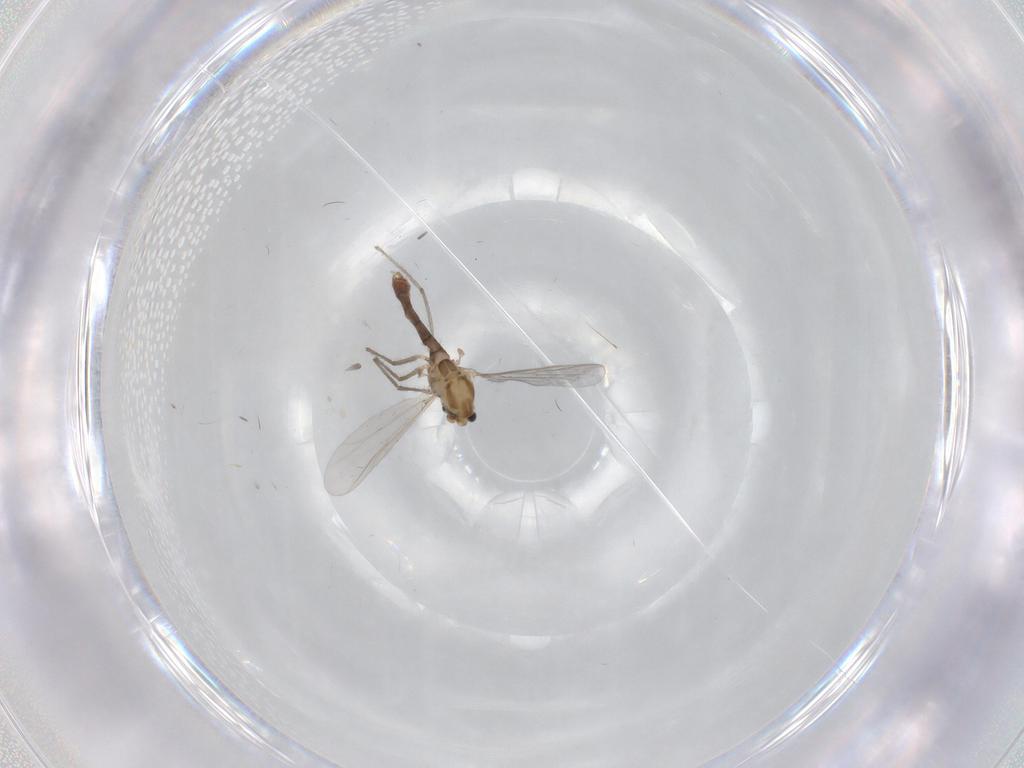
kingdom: Animalia
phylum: Arthropoda
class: Insecta
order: Diptera
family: Chironomidae
